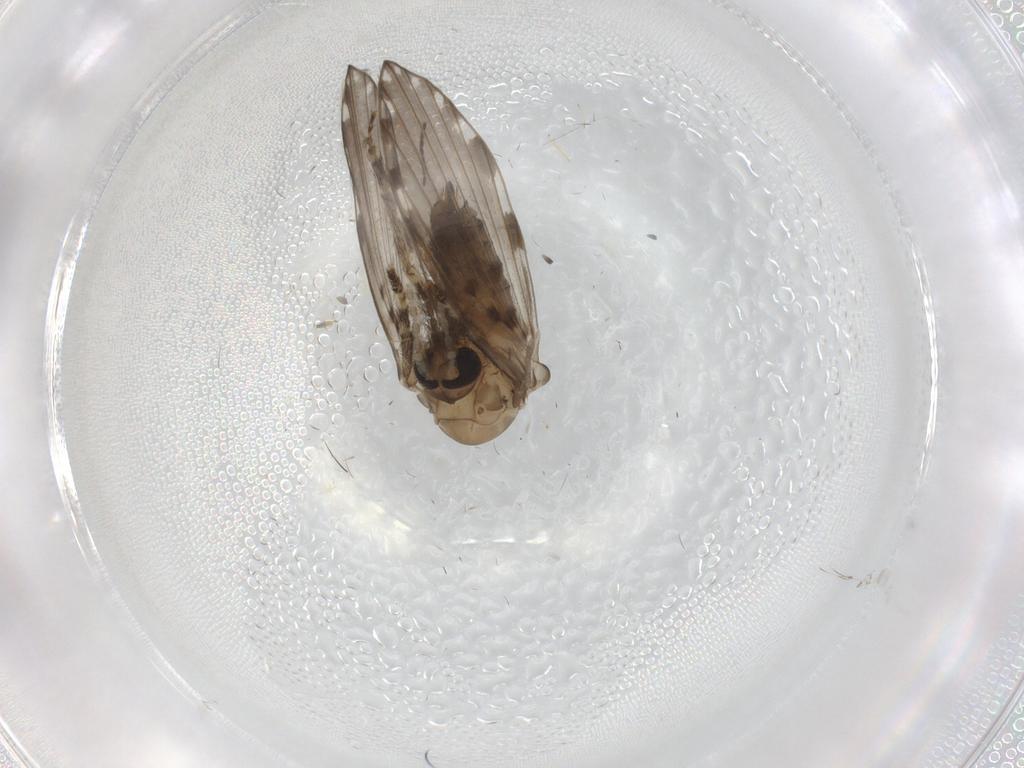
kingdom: Animalia
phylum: Arthropoda
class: Insecta
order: Diptera
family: Psychodidae
